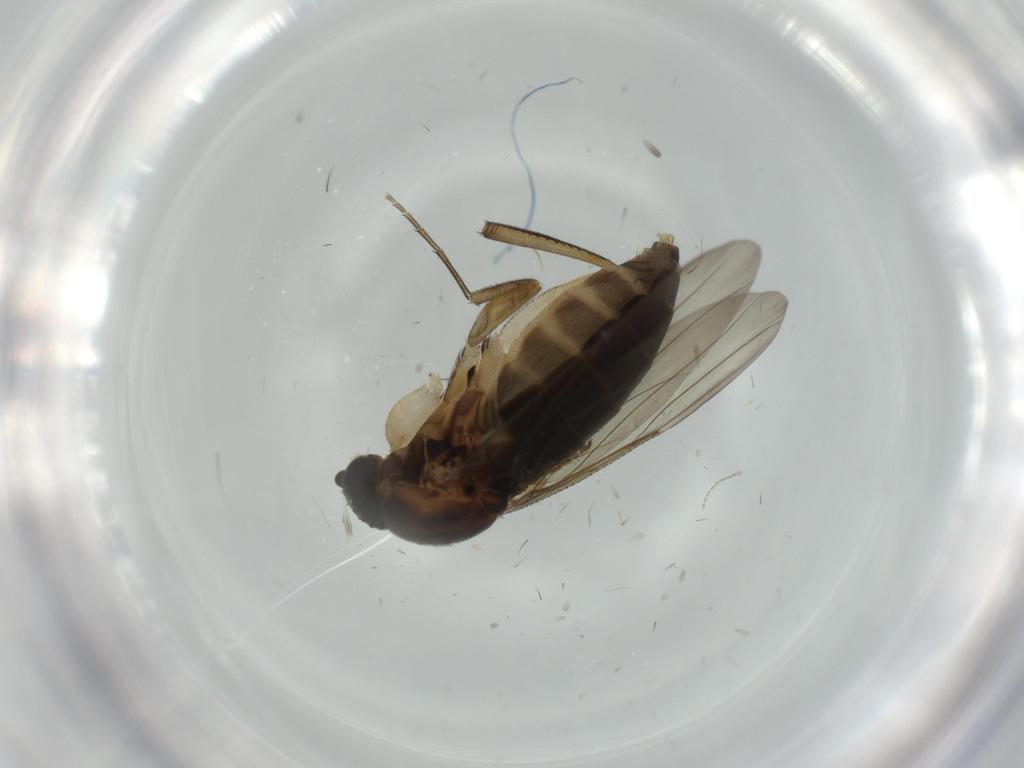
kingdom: Animalia
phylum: Arthropoda
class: Insecta
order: Diptera
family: Phoridae
